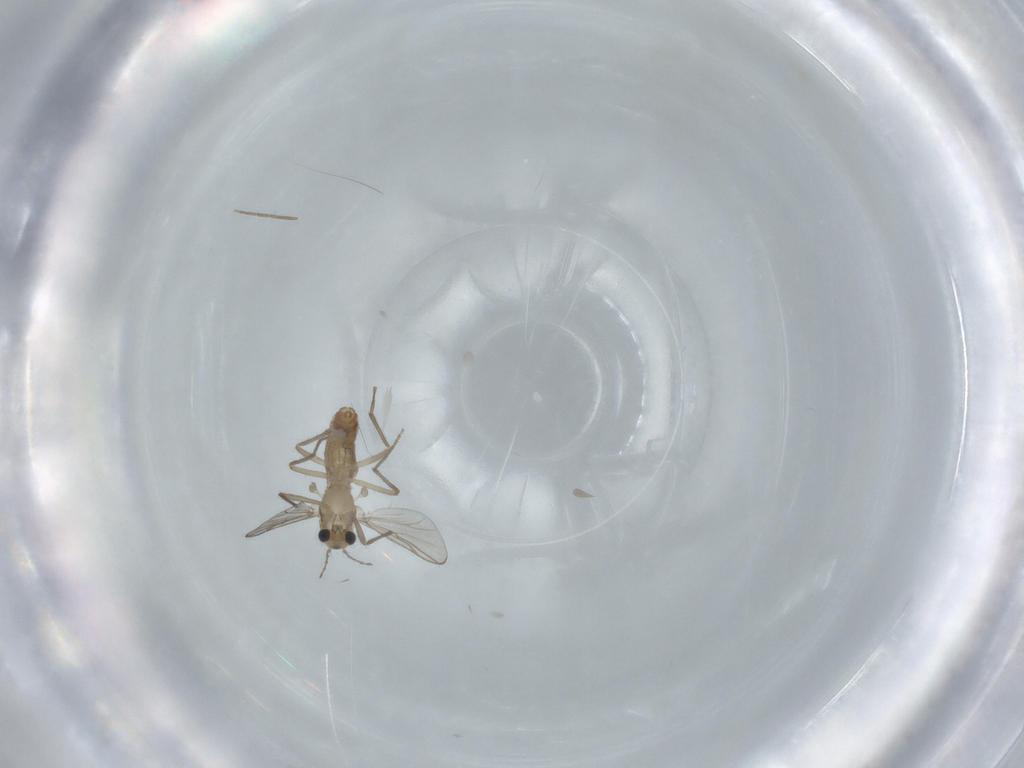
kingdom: Animalia
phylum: Arthropoda
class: Insecta
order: Diptera
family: Chironomidae
